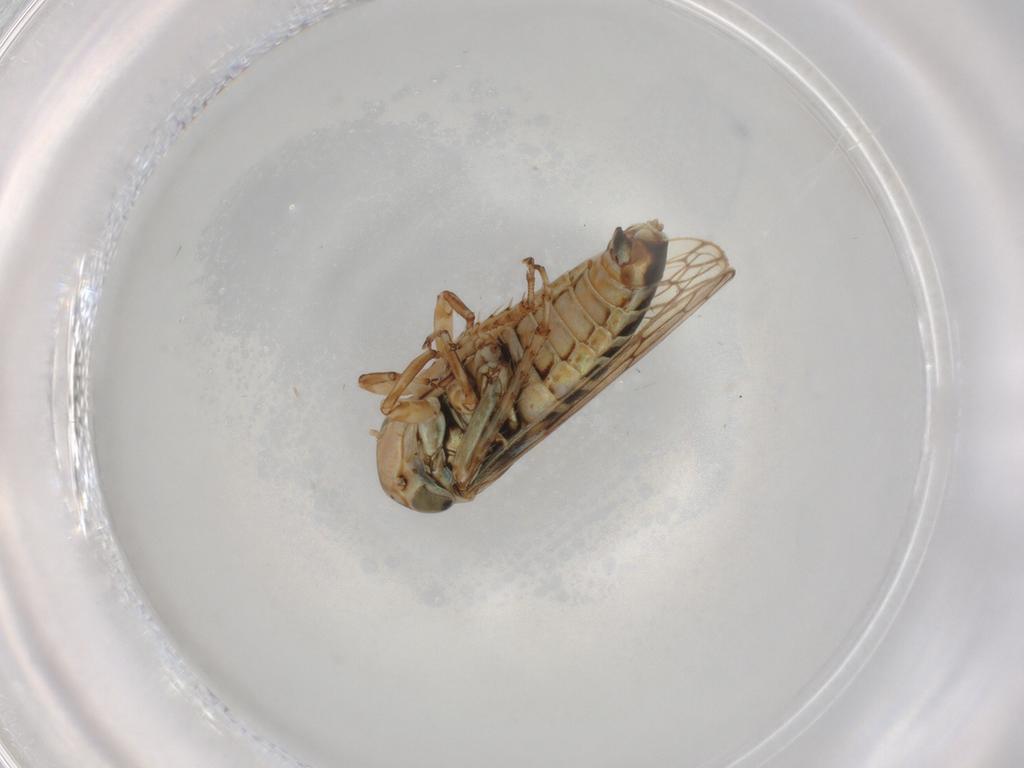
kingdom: Animalia
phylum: Arthropoda
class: Insecta
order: Hemiptera
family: Cicadellidae
